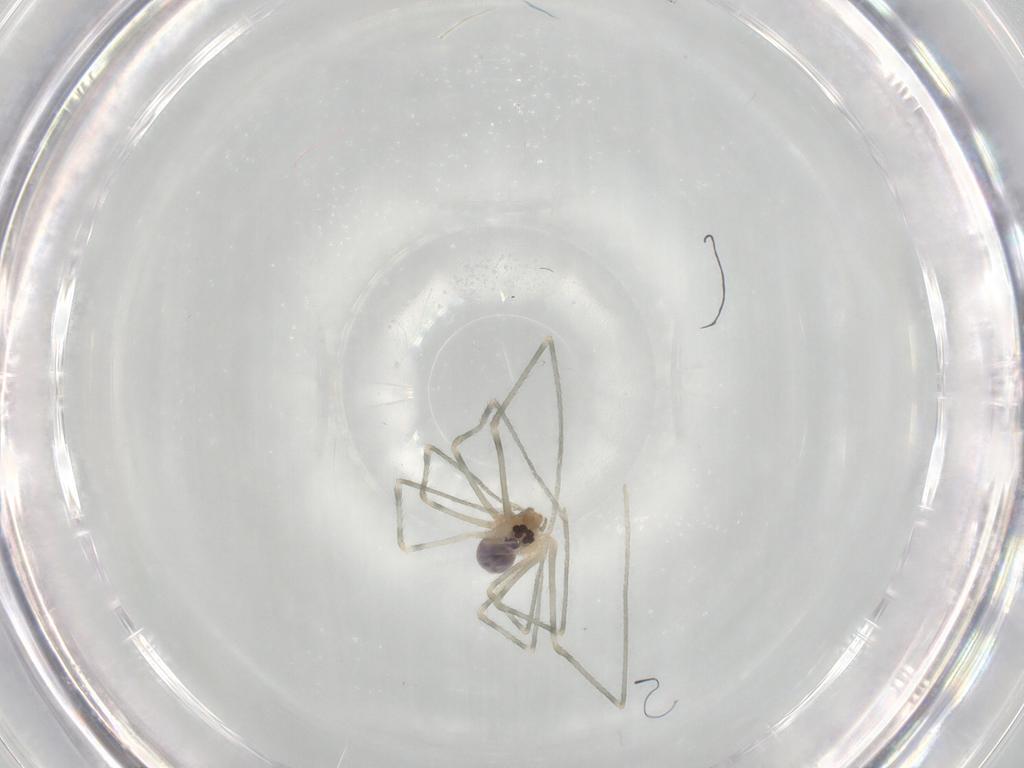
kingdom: Animalia
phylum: Arthropoda
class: Arachnida
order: Araneae
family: Pholcidae
